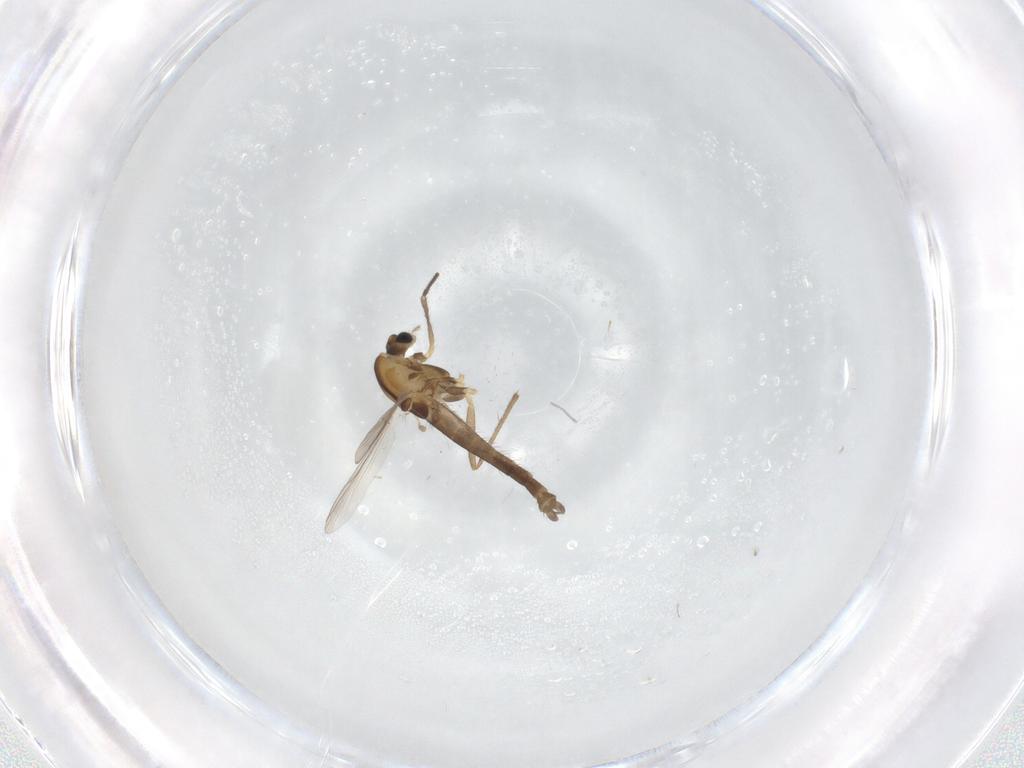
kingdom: Animalia
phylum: Arthropoda
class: Insecta
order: Diptera
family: Chironomidae
